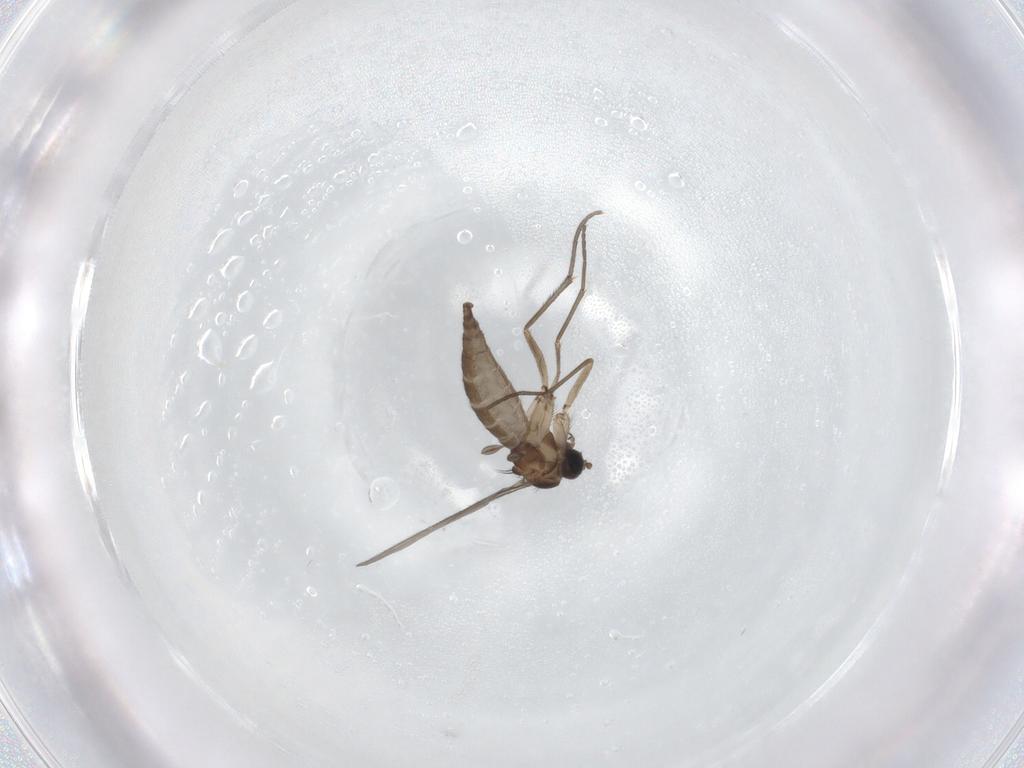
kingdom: Animalia
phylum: Arthropoda
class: Insecta
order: Diptera
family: Sciaridae
